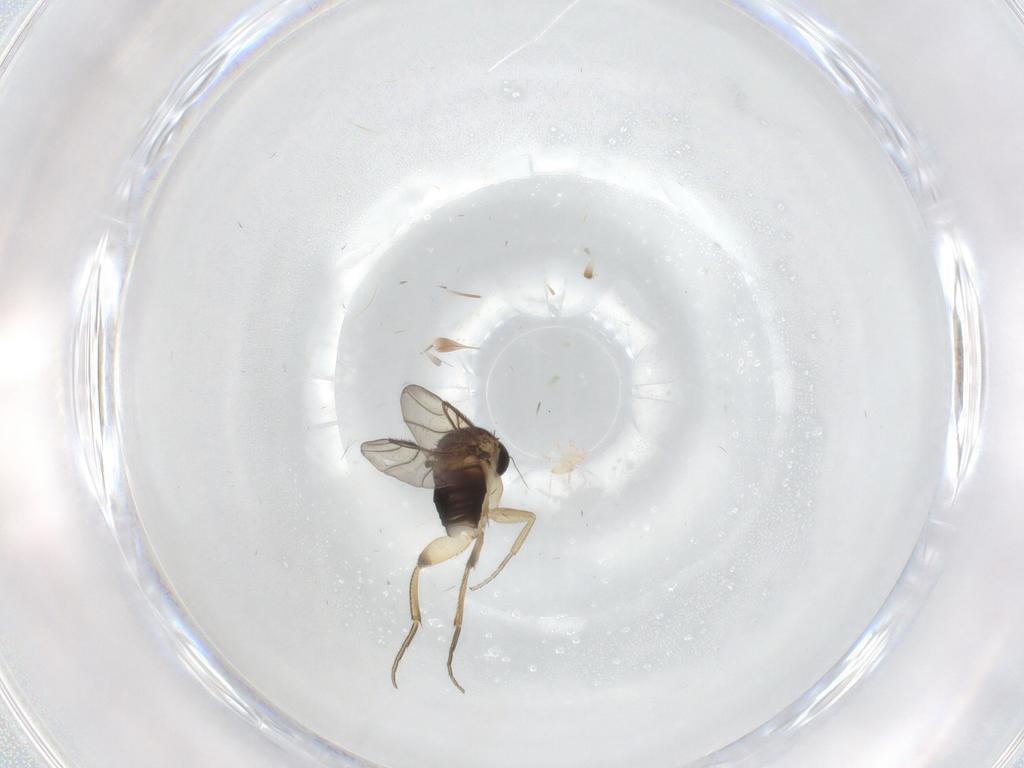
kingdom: Animalia
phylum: Arthropoda
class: Insecta
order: Diptera
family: Phoridae
